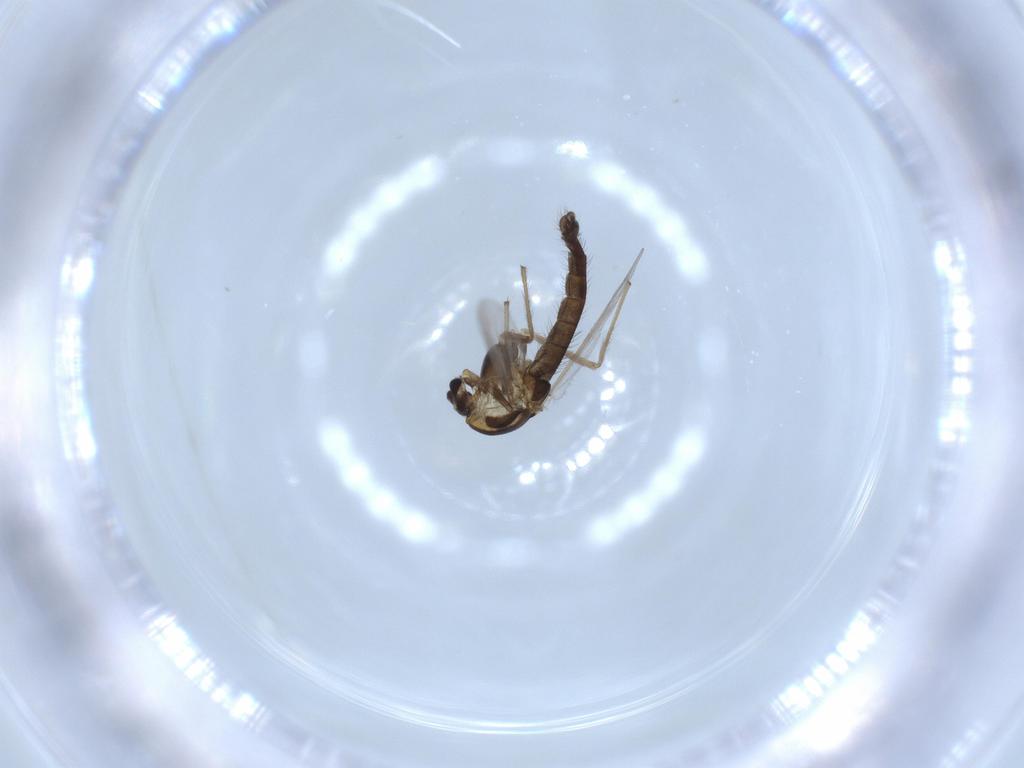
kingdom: Animalia
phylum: Arthropoda
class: Insecta
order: Diptera
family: Chironomidae
